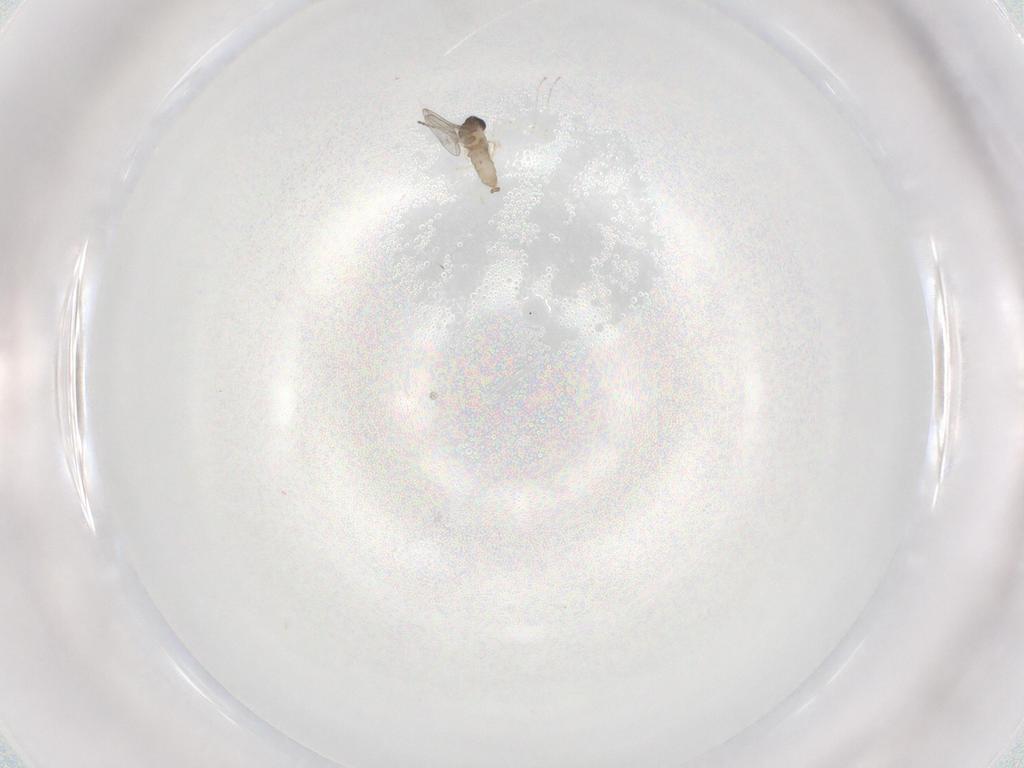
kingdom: Animalia
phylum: Arthropoda
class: Insecta
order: Diptera
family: Cecidomyiidae
